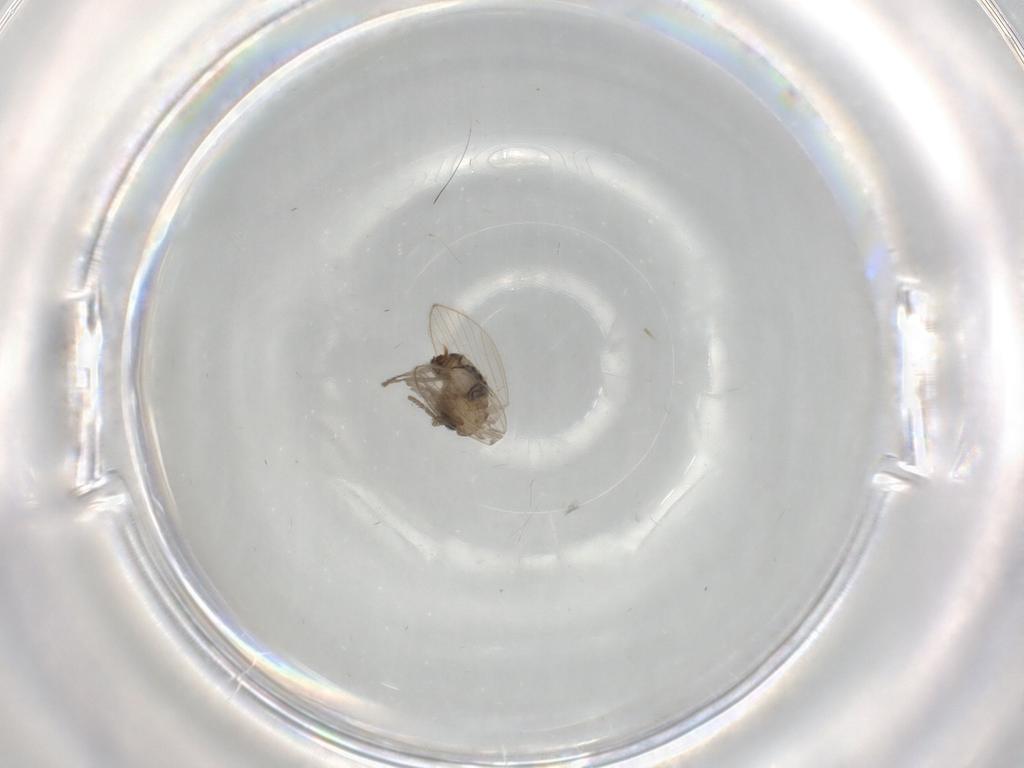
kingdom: Animalia
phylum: Arthropoda
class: Insecta
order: Diptera
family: Psychodidae
